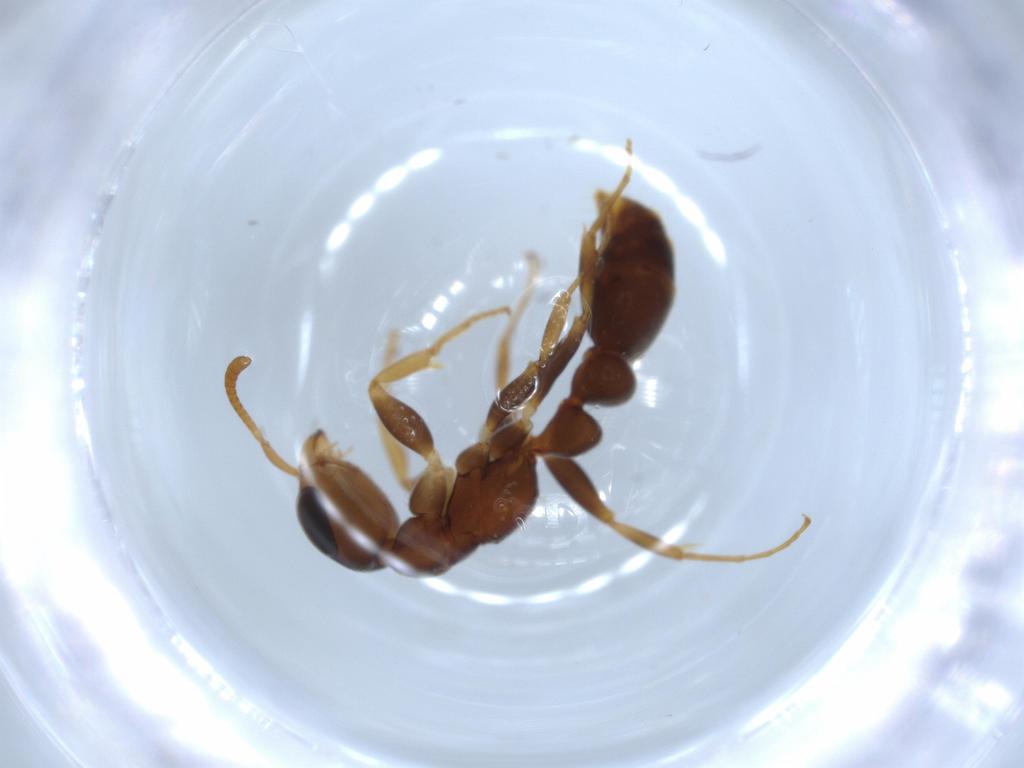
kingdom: Animalia
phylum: Arthropoda
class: Insecta
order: Hymenoptera
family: Formicidae
